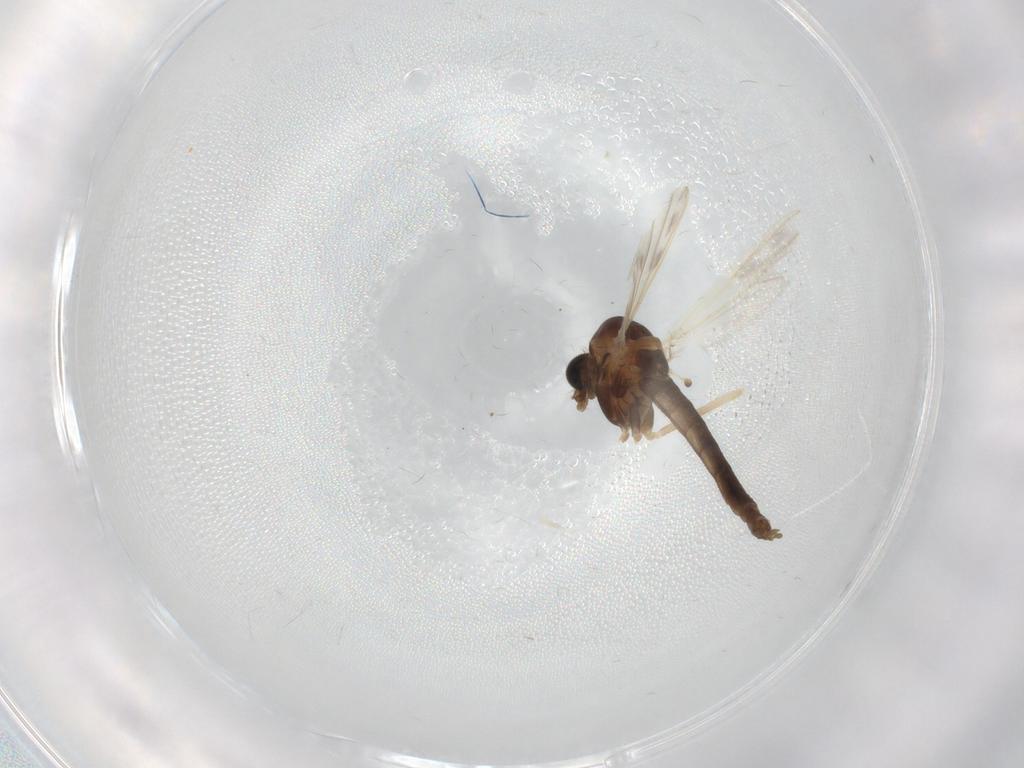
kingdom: Animalia
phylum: Arthropoda
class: Insecta
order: Diptera
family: Chironomidae
